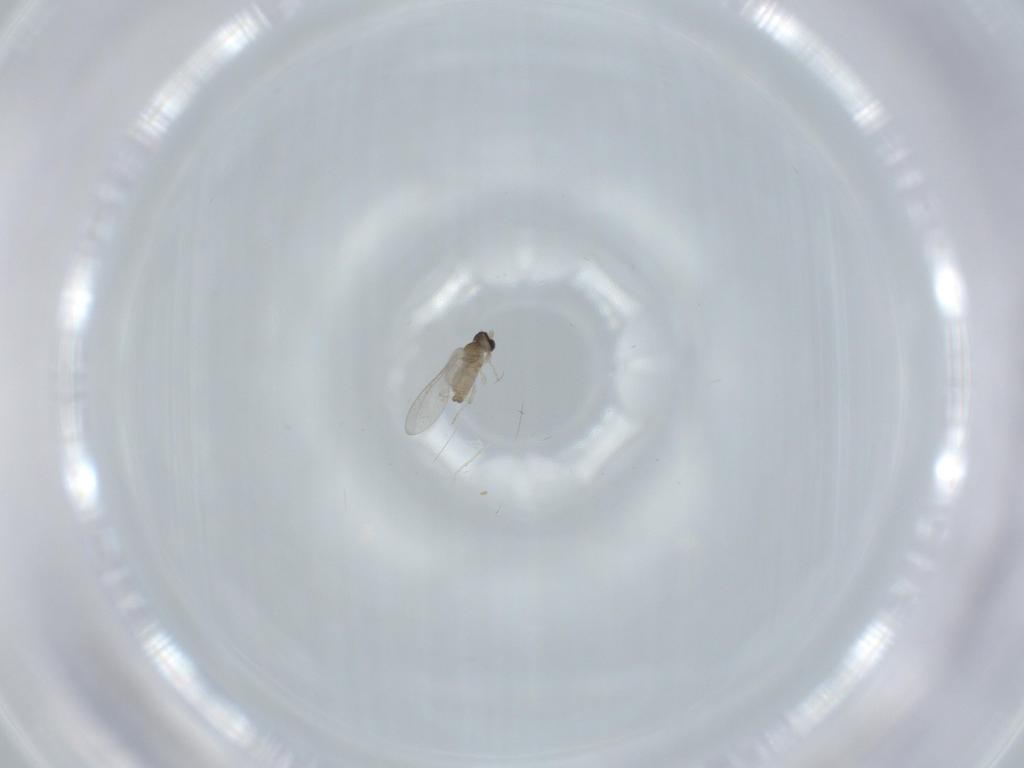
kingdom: Animalia
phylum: Arthropoda
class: Insecta
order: Diptera
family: Cecidomyiidae
